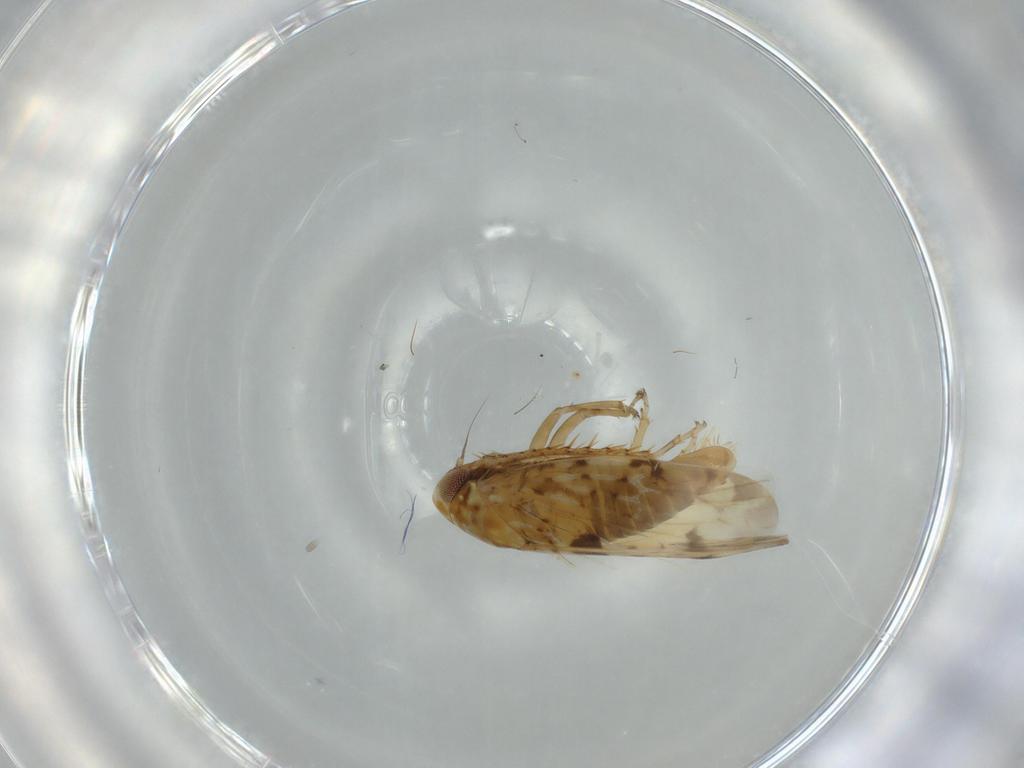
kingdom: Animalia
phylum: Arthropoda
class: Insecta
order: Hemiptera
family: Cicadellidae
